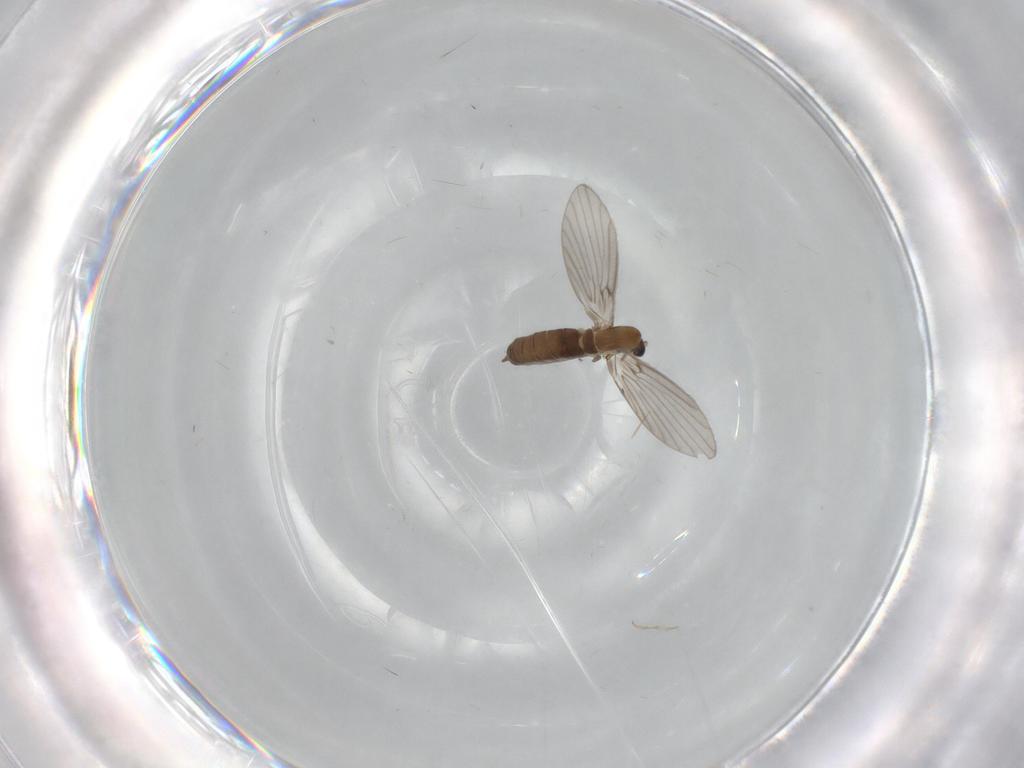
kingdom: Animalia
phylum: Arthropoda
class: Insecta
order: Diptera
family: Psychodidae
